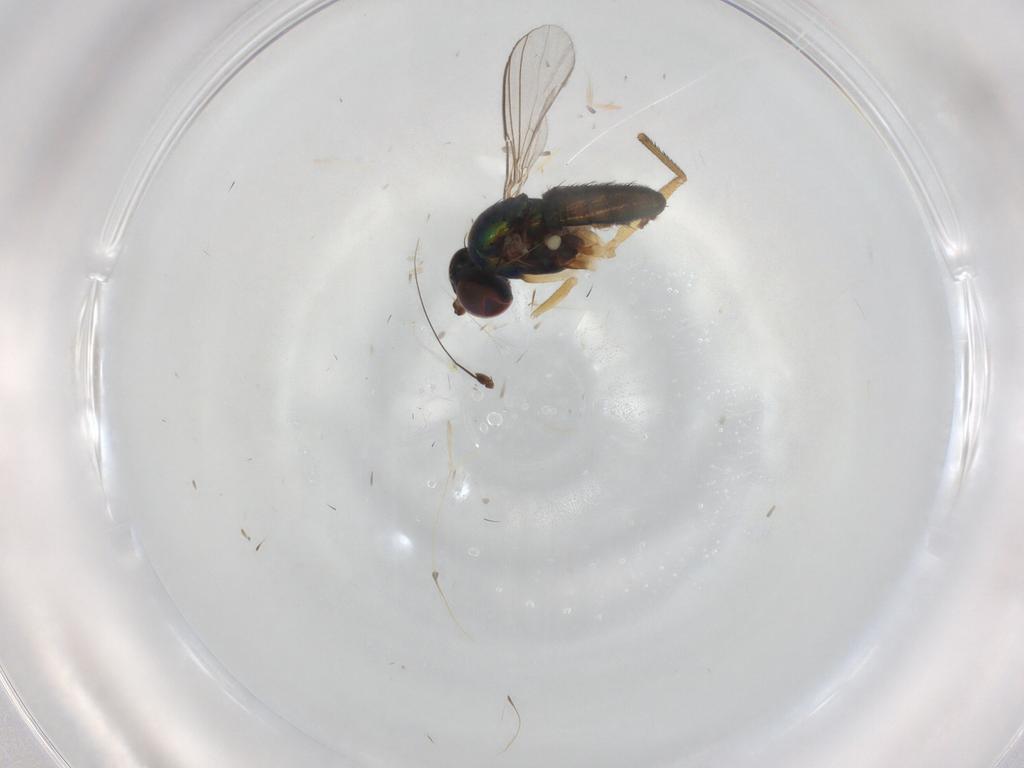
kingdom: Animalia
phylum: Arthropoda
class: Insecta
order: Diptera
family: Dolichopodidae
